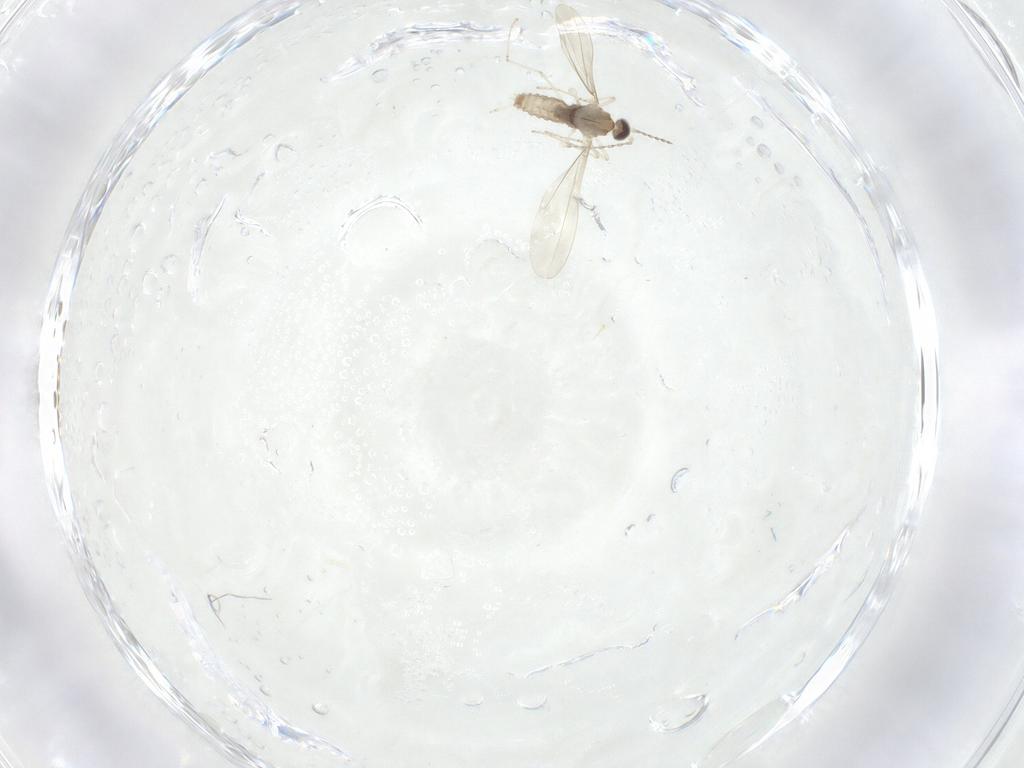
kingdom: Animalia
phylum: Arthropoda
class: Insecta
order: Diptera
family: Cecidomyiidae
